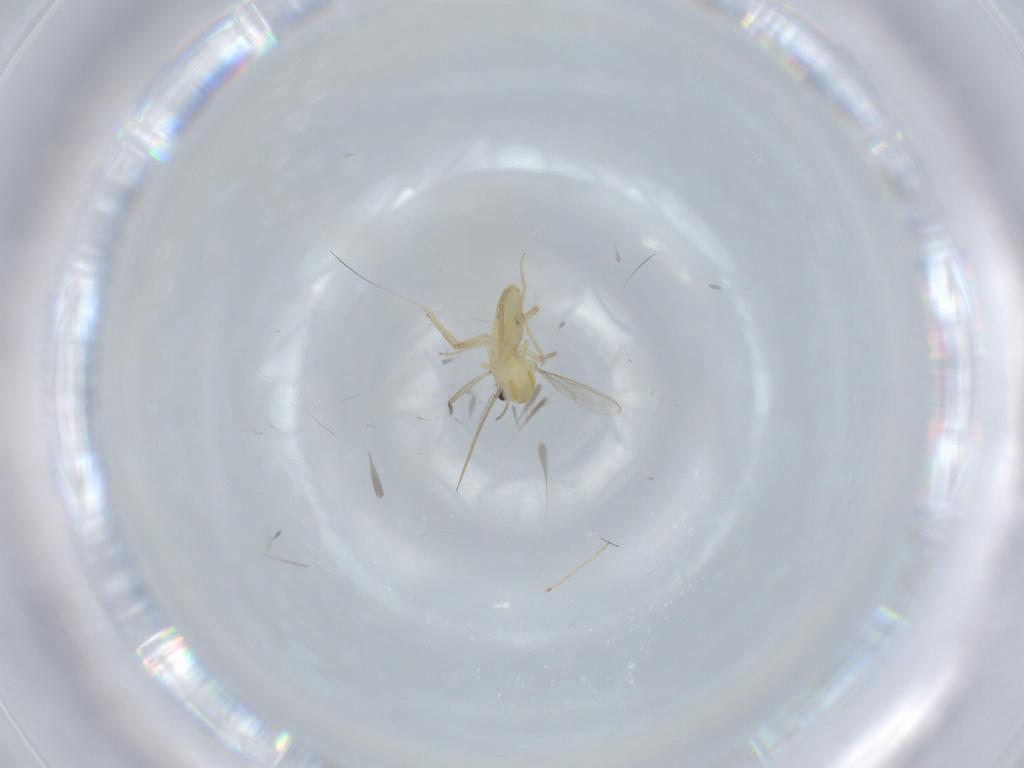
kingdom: Animalia
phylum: Arthropoda
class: Insecta
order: Diptera
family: Chironomidae
